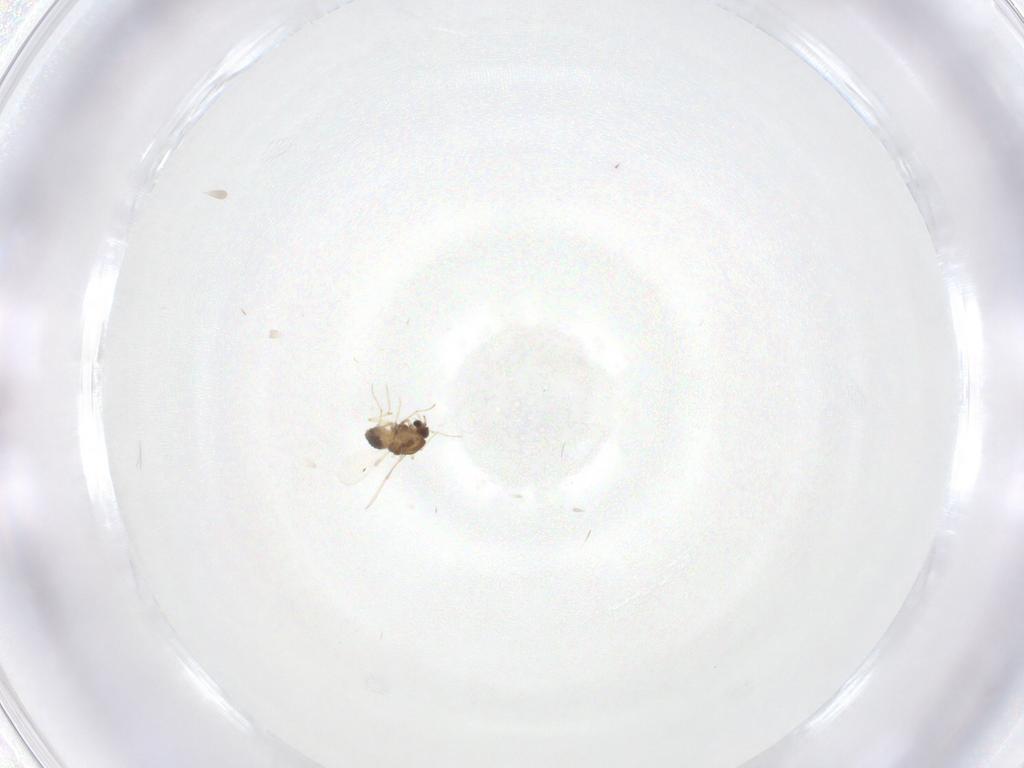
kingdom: Animalia
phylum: Arthropoda
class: Insecta
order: Diptera
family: Chironomidae
